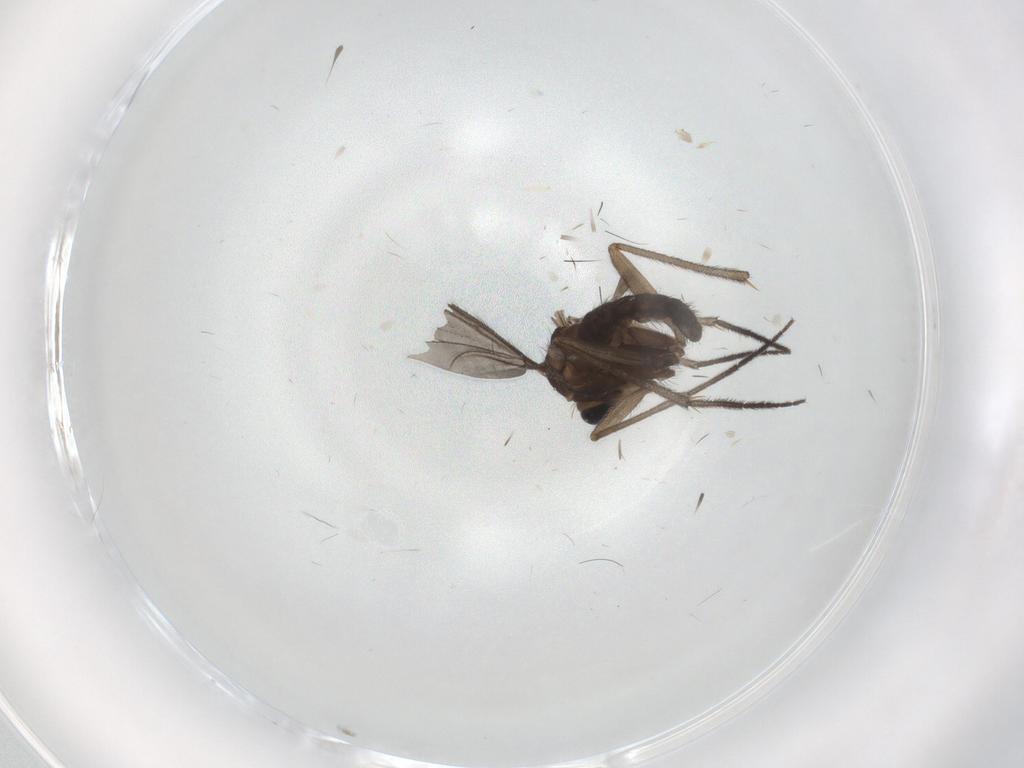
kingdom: Animalia
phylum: Arthropoda
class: Insecta
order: Diptera
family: Sciaridae
